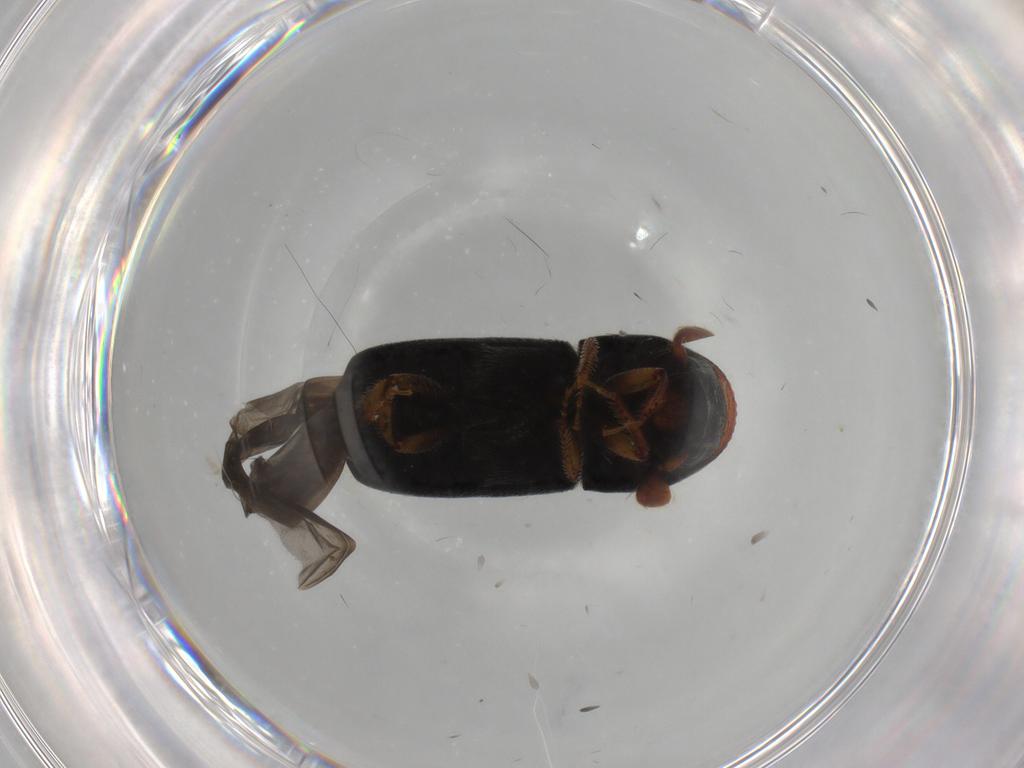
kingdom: Animalia
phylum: Arthropoda
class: Insecta
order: Coleoptera
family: Curculionidae
